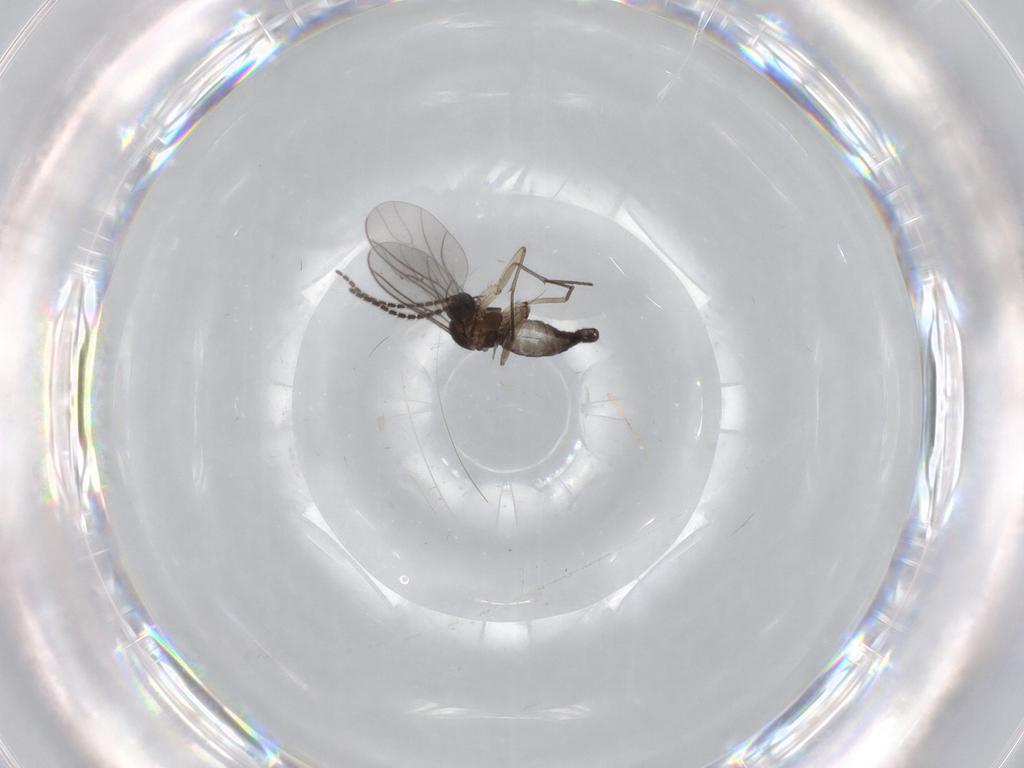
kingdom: Animalia
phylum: Arthropoda
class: Insecta
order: Diptera
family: Sciaridae
